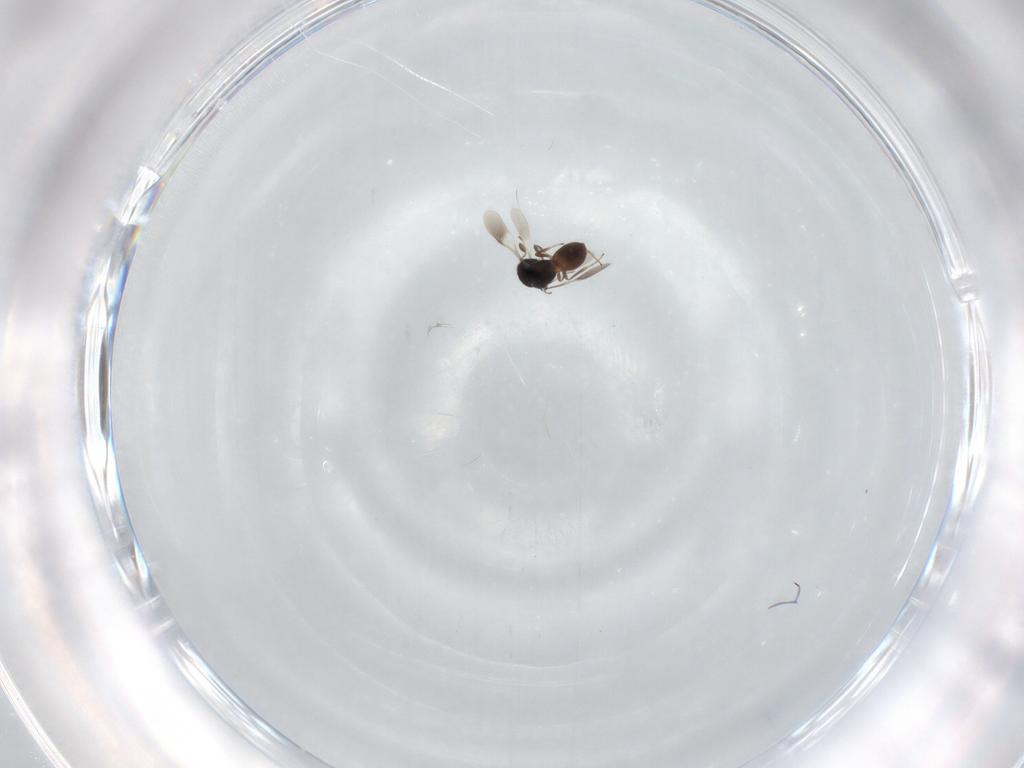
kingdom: Animalia
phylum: Arthropoda
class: Insecta
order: Hymenoptera
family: Scelionidae
